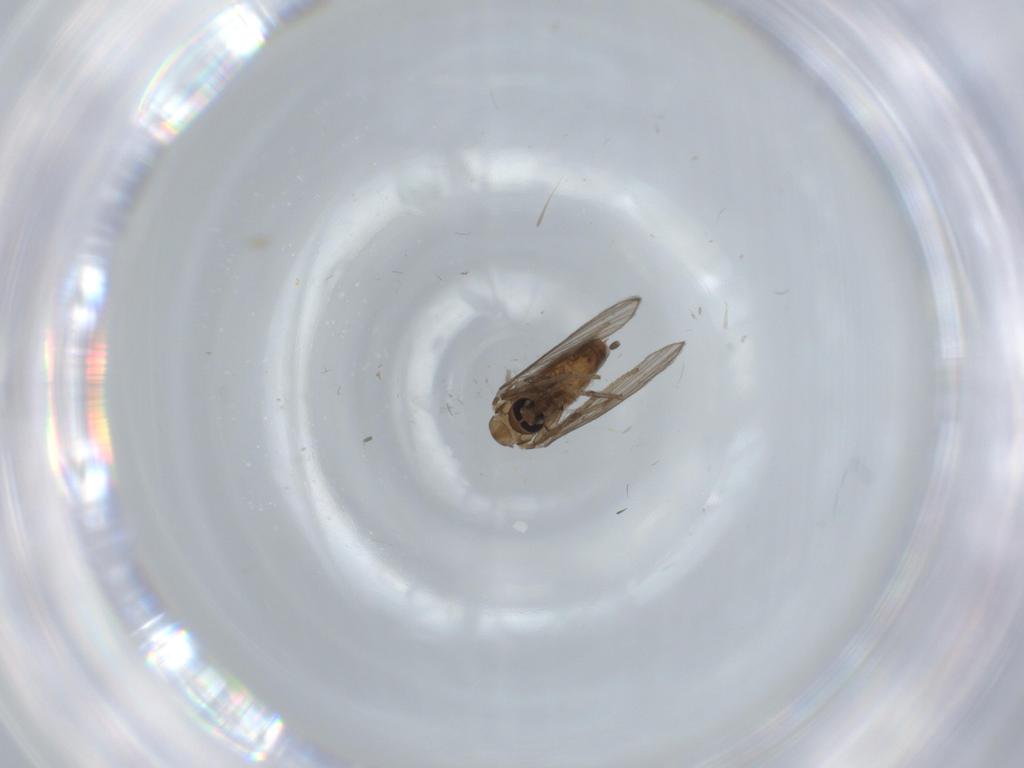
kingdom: Animalia
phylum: Arthropoda
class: Insecta
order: Diptera
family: Psychodidae
